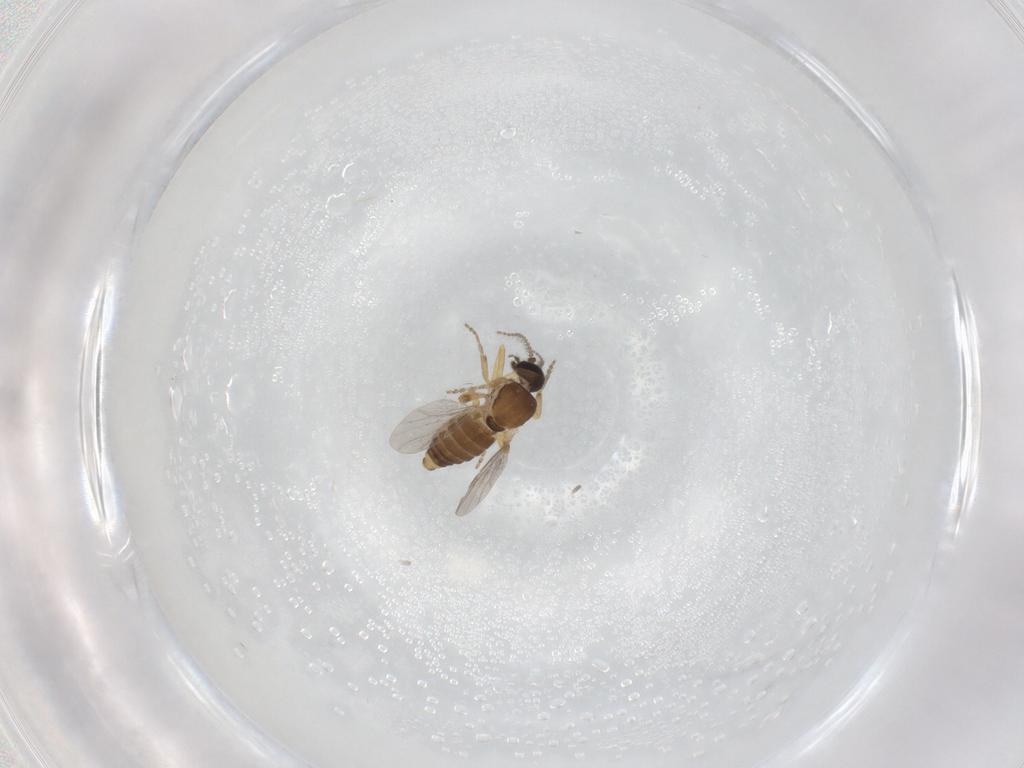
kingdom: Animalia
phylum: Arthropoda
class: Insecta
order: Diptera
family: Ceratopogonidae
